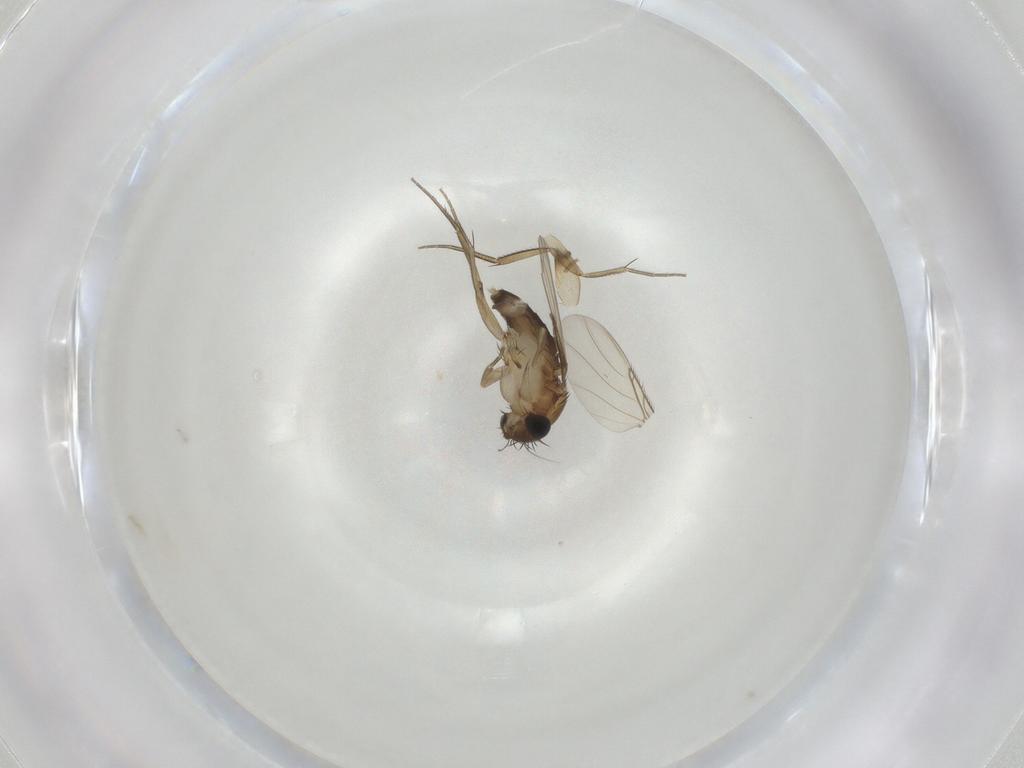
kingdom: Animalia
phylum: Arthropoda
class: Insecta
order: Diptera
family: Phoridae
